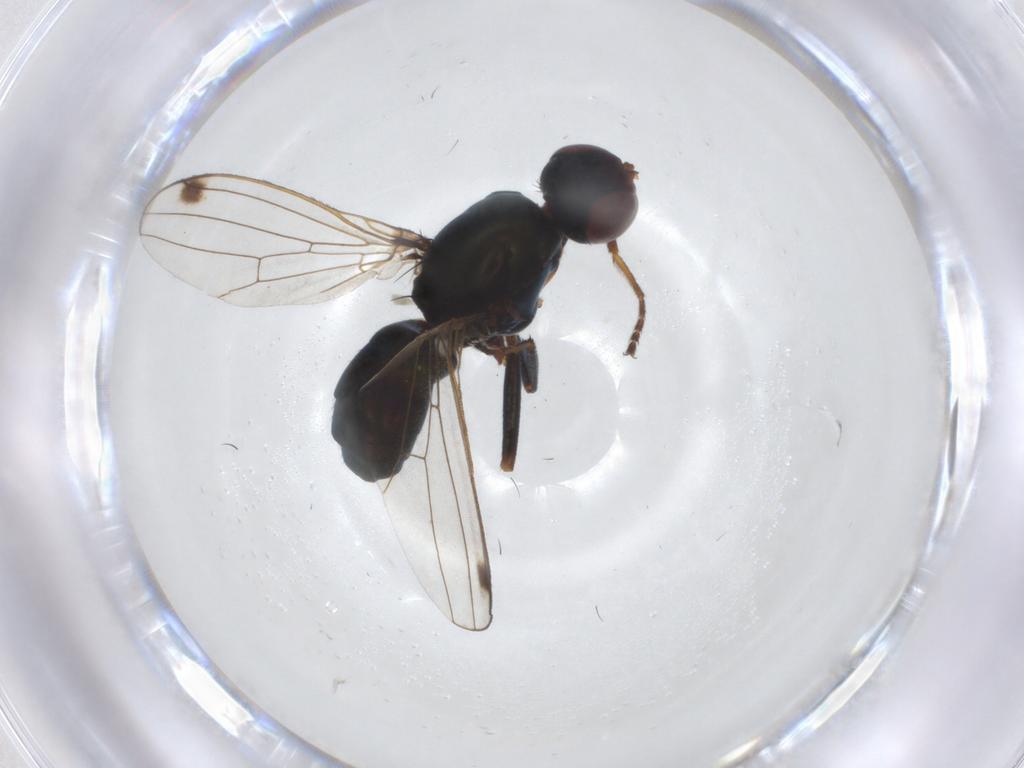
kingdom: Animalia
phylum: Arthropoda
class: Insecta
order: Diptera
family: Sepsidae
